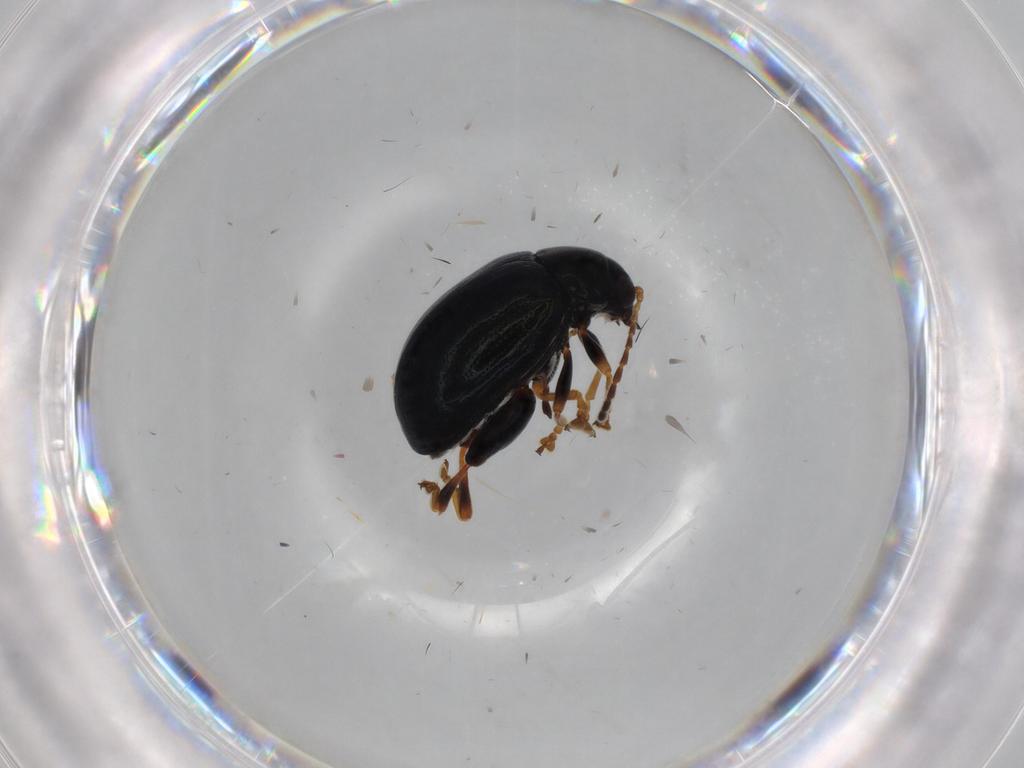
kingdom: Animalia
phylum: Arthropoda
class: Insecta
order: Coleoptera
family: Chrysomelidae
